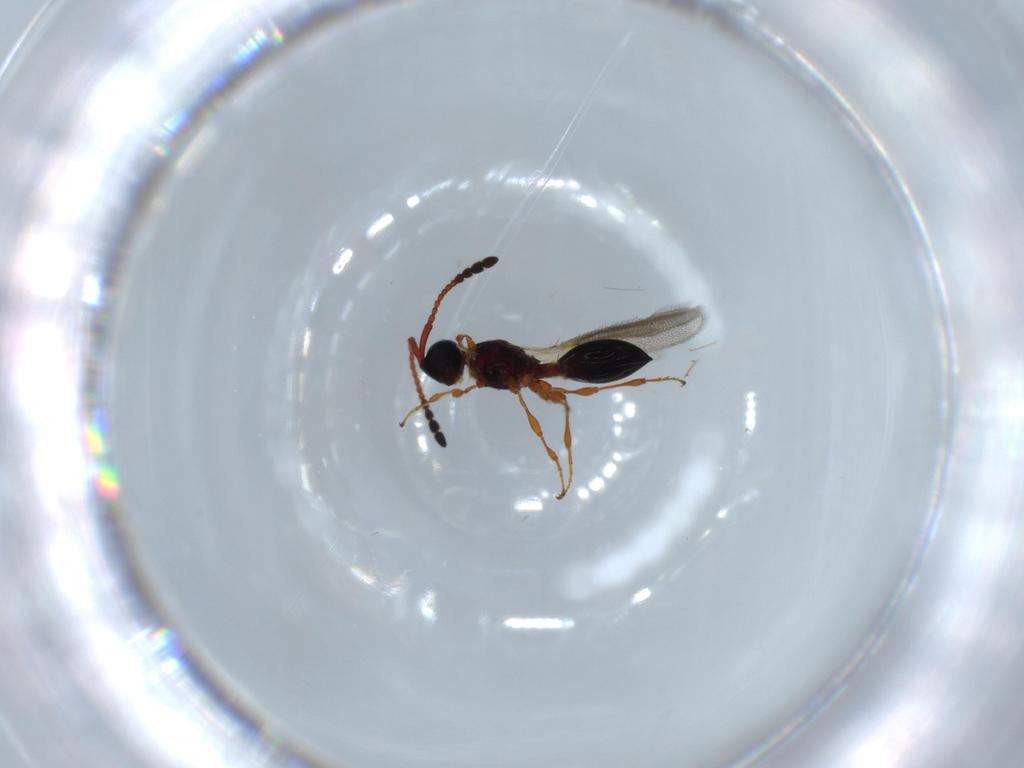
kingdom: Animalia
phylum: Arthropoda
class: Insecta
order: Hymenoptera
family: Diapriidae
